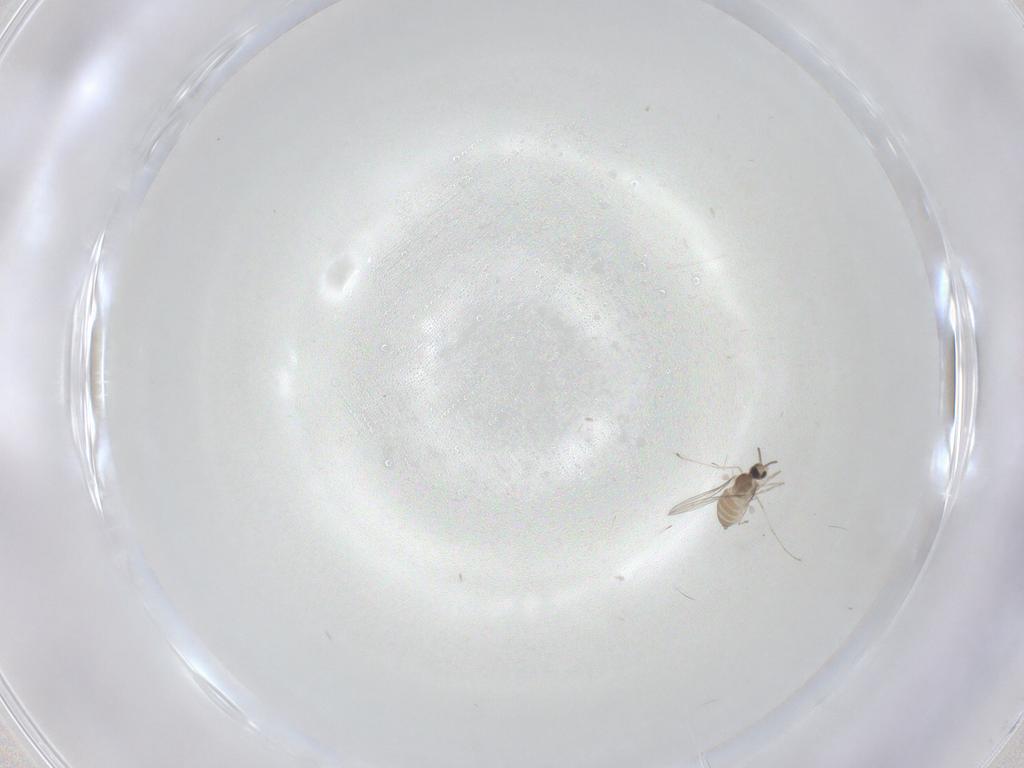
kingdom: Animalia
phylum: Arthropoda
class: Insecta
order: Diptera
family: Cecidomyiidae
